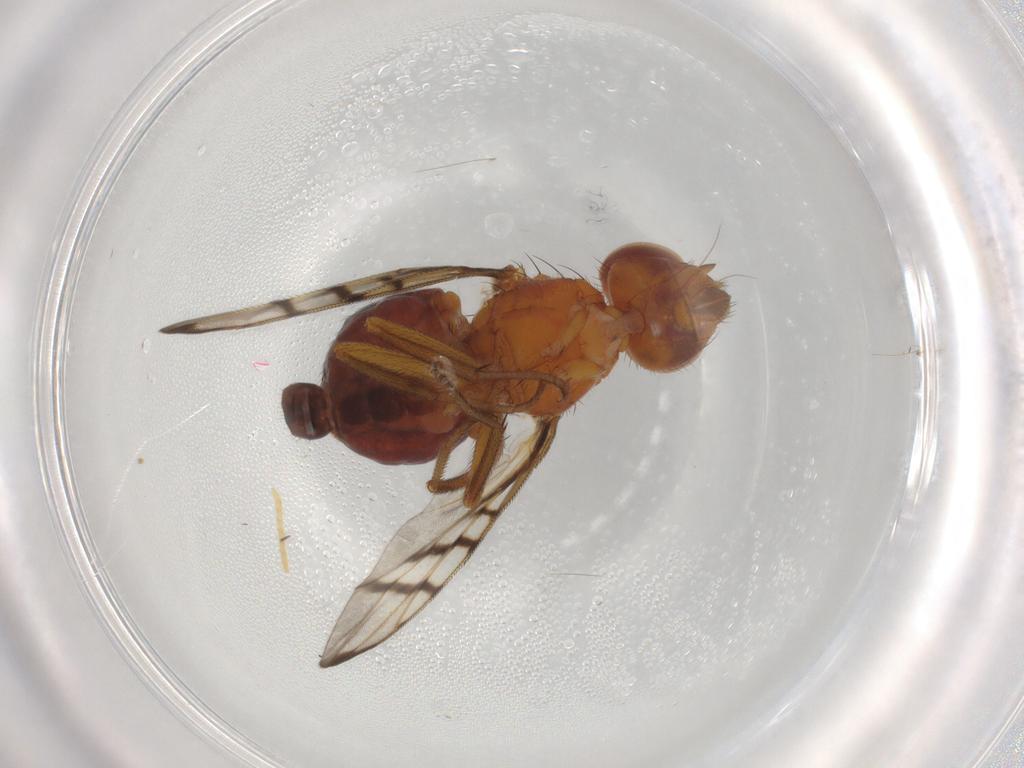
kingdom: Animalia
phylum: Arthropoda
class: Insecta
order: Diptera
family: Platystomatidae
